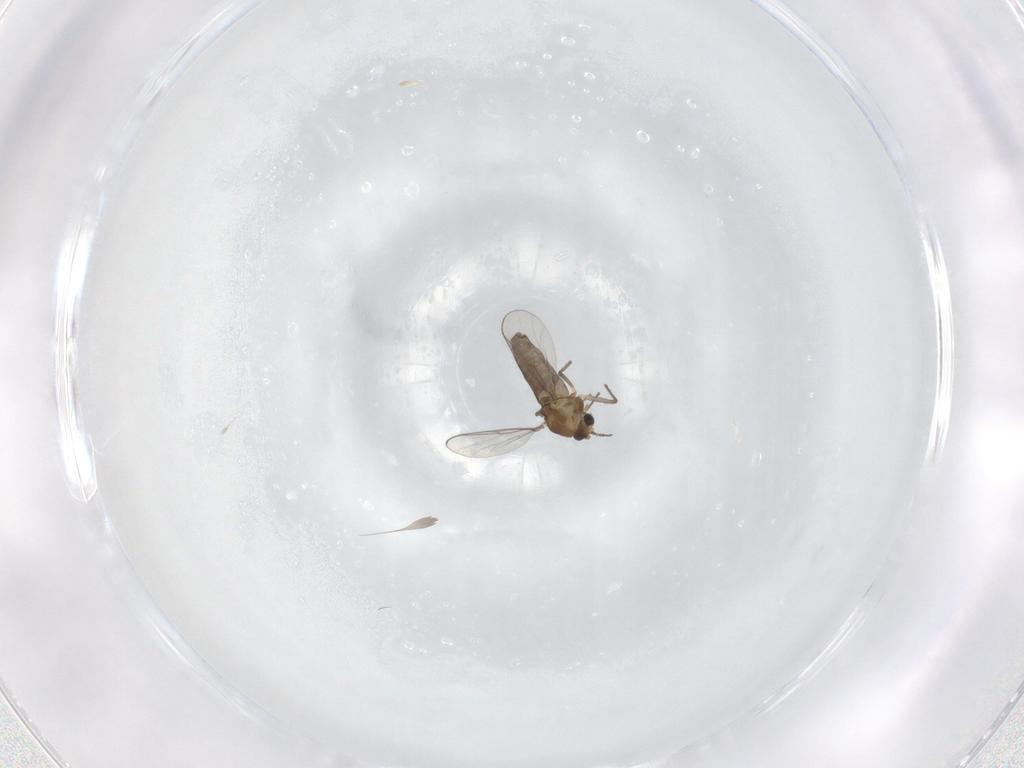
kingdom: Animalia
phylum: Arthropoda
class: Insecta
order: Diptera
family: Chironomidae
